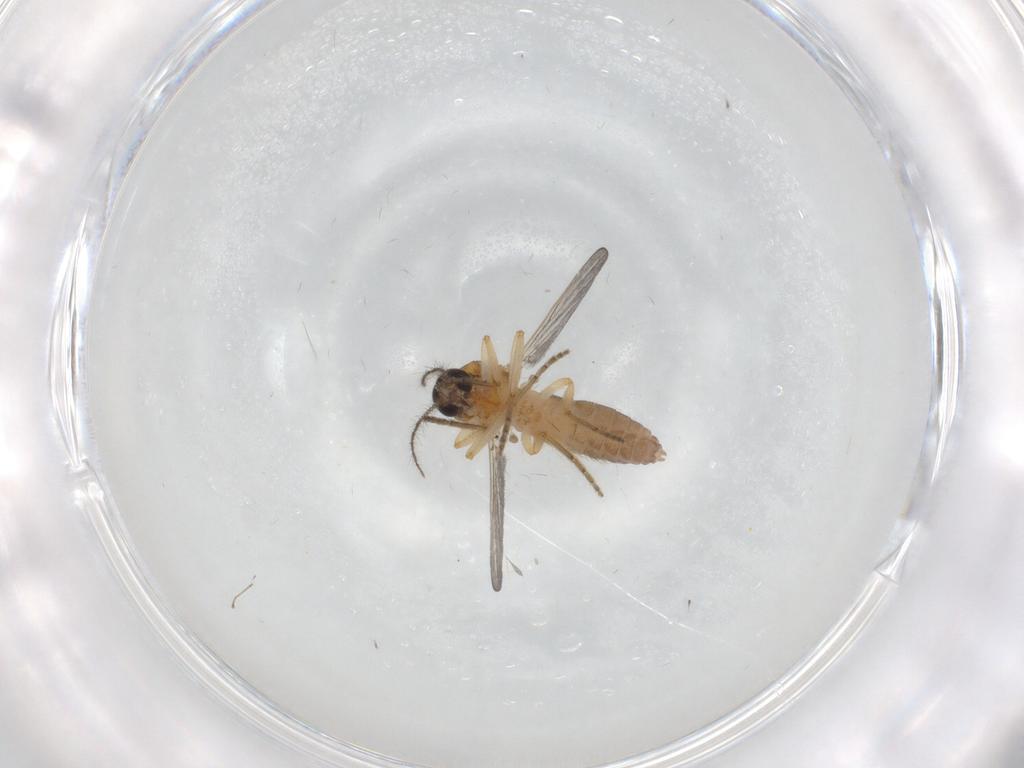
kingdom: Animalia
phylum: Arthropoda
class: Insecta
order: Diptera
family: Ceratopogonidae
